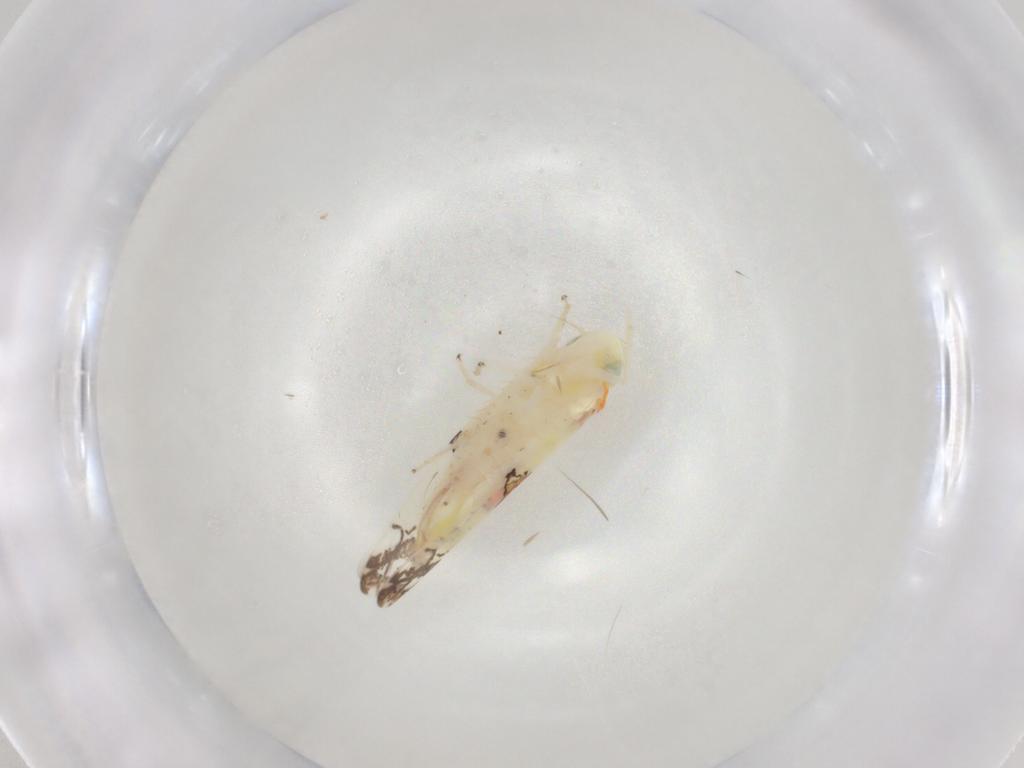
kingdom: Animalia
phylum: Arthropoda
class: Insecta
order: Hemiptera
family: Cicadellidae
